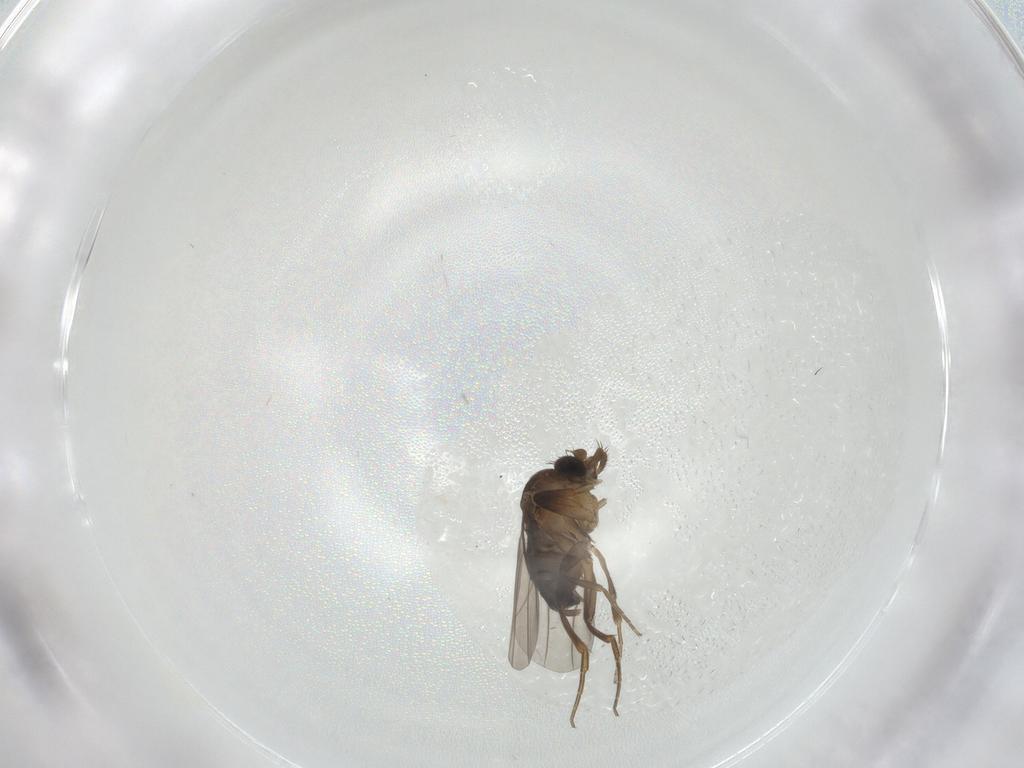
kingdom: Animalia
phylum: Arthropoda
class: Insecta
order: Diptera
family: Phoridae
